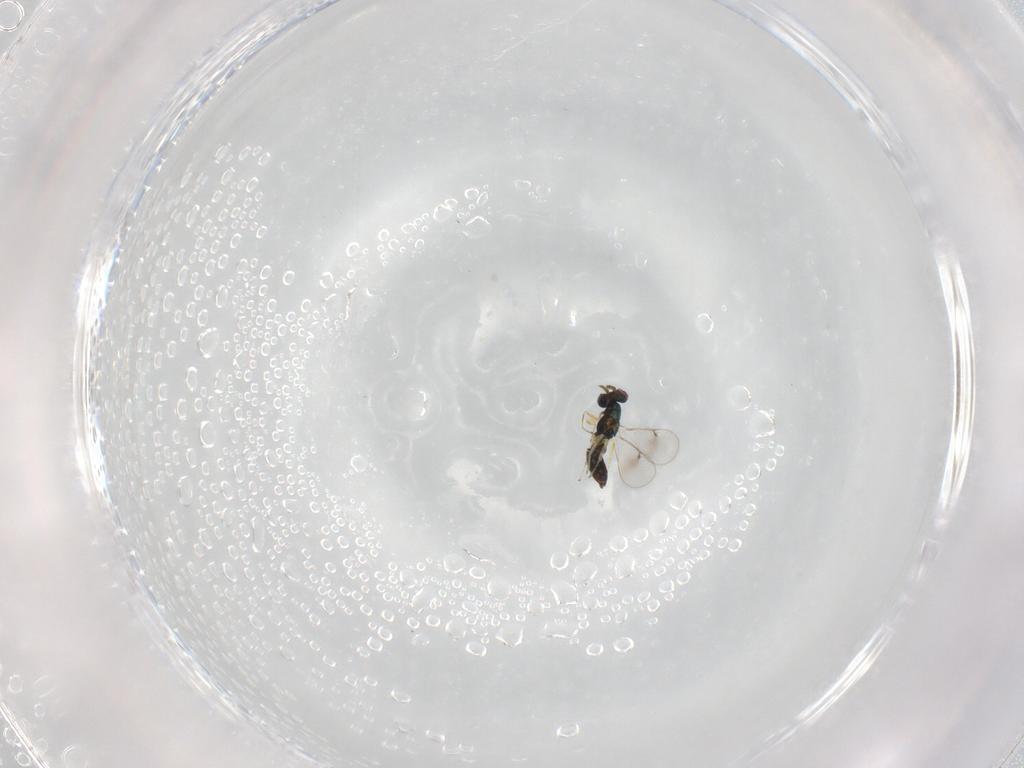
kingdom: Animalia
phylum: Arthropoda
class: Insecta
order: Hymenoptera
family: Eulophidae
